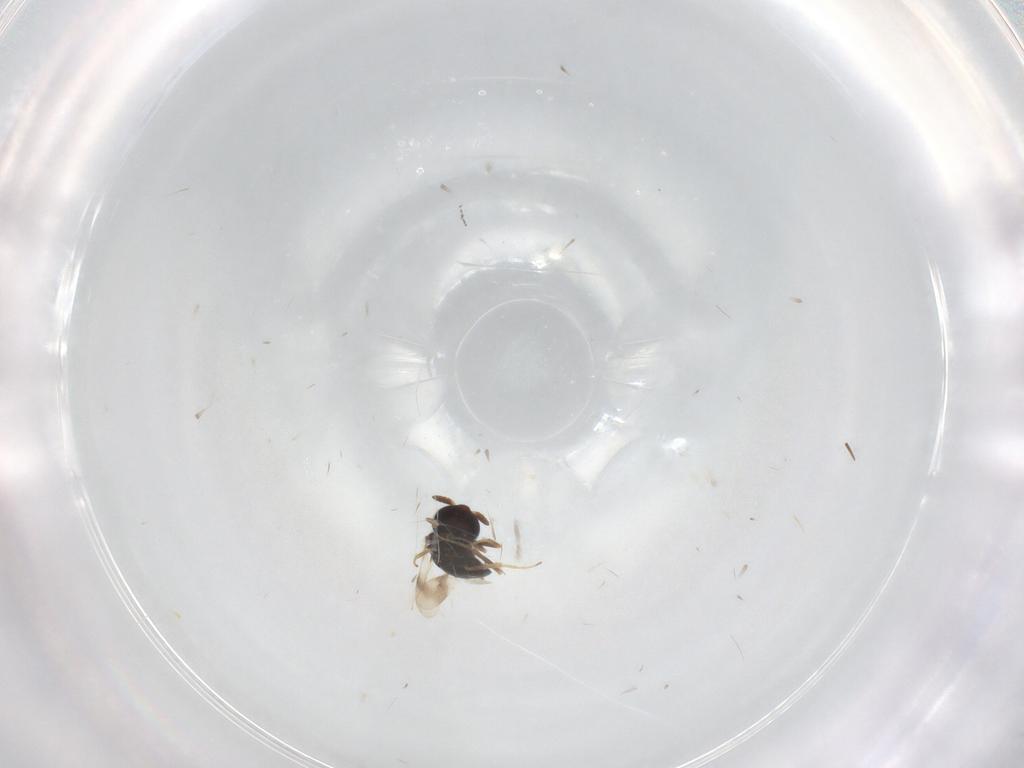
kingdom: Animalia
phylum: Arthropoda
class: Insecta
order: Hymenoptera
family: Scelionidae
